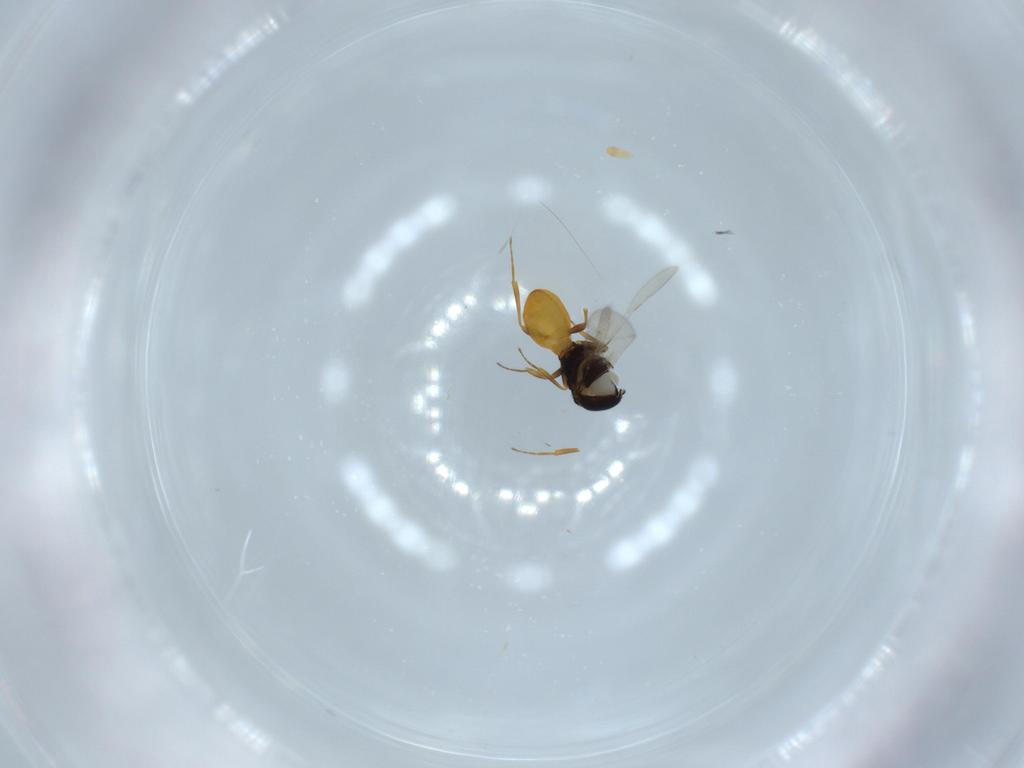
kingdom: Animalia
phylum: Arthropoda
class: Insecta
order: Hymenoptera
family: Scelionidae
